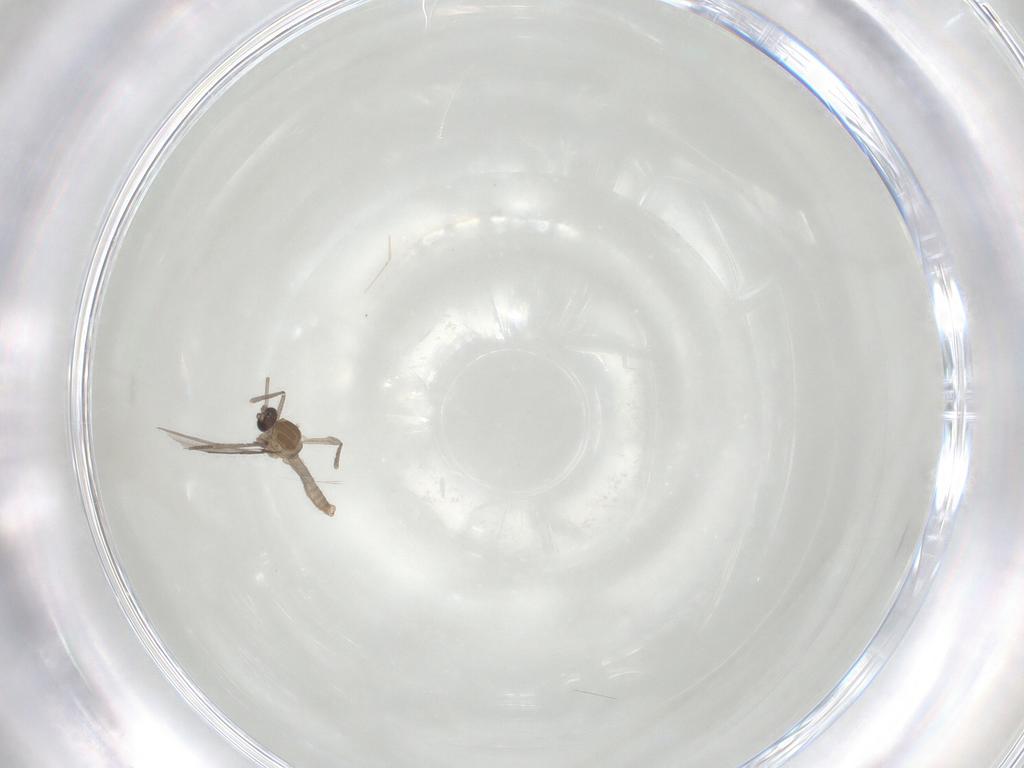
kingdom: Animalia
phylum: Arthropoda
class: Insecta
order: Diptera
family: Cecidomyiidae
